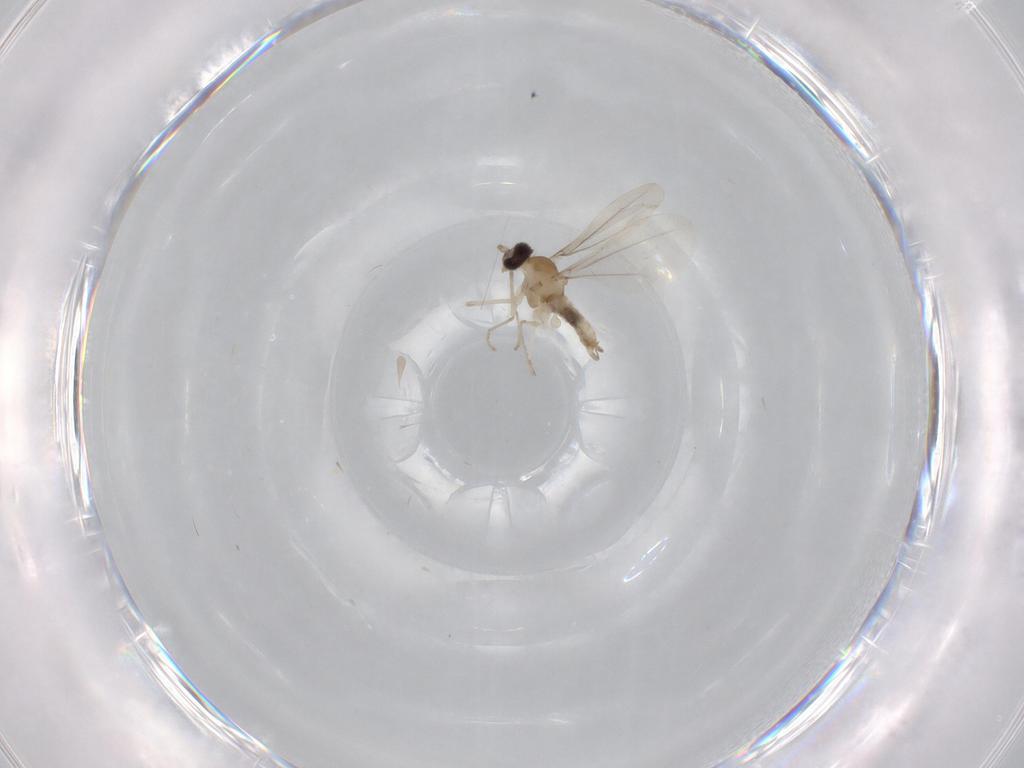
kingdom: Animalia
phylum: Arthropoda
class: Insecta
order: Diptera
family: Cecidomyiidae
